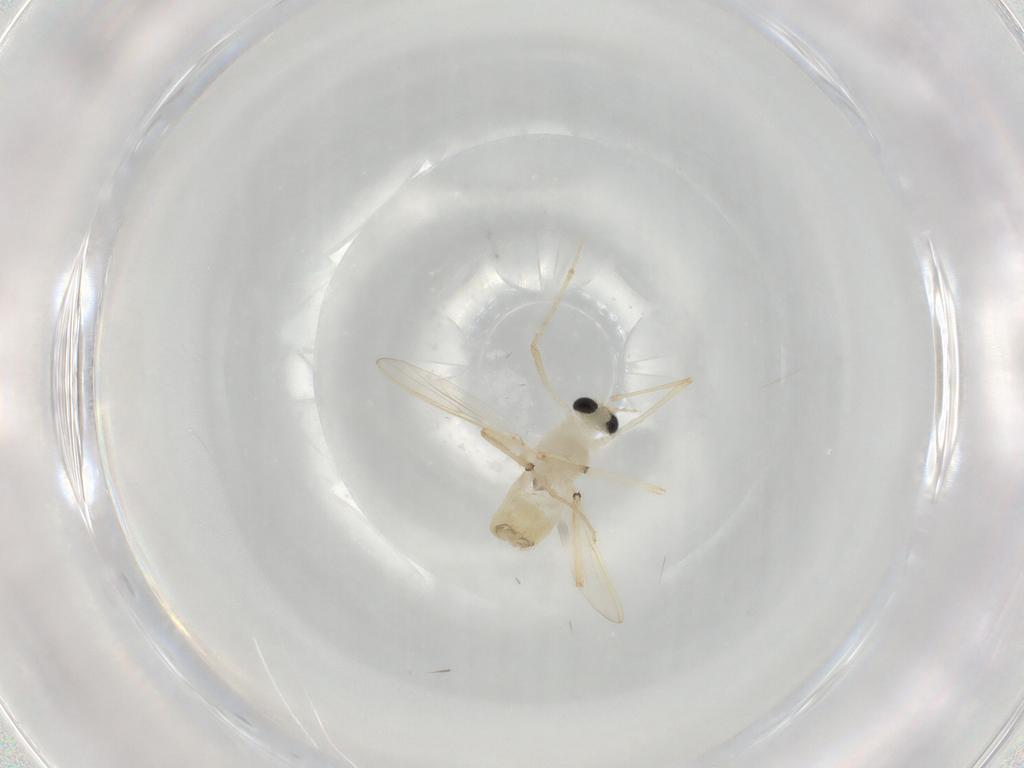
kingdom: Animalia
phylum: Arthropoda
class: Insecta
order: Diptera
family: Chironomidae
